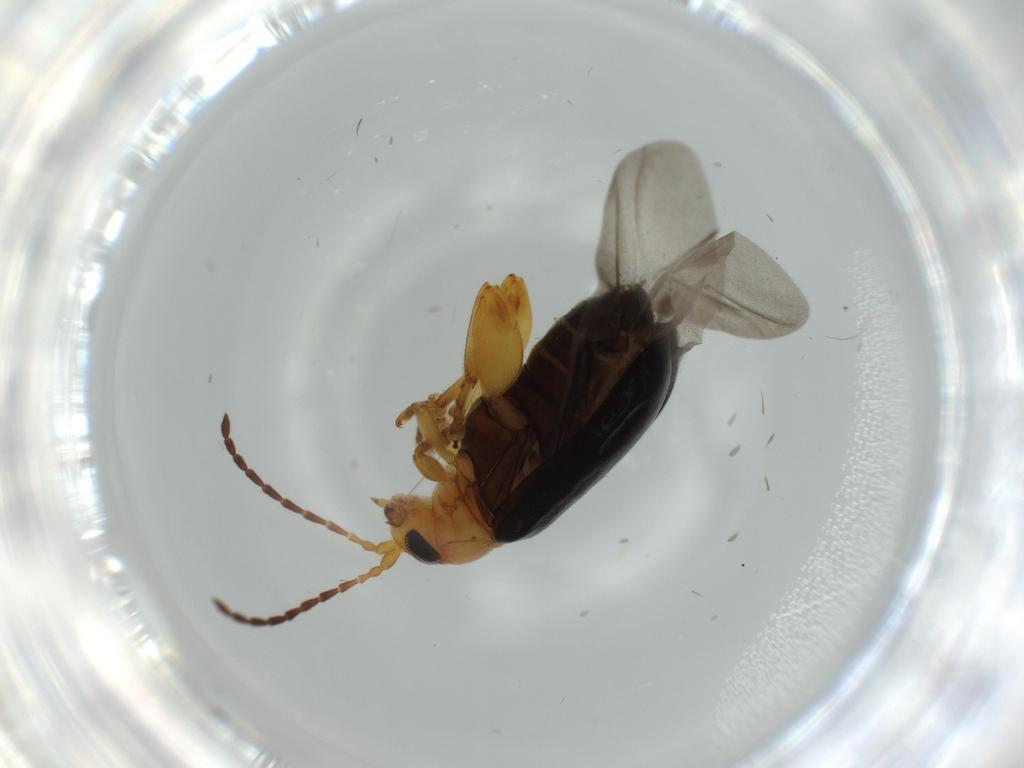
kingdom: Animalia
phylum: Arthropoda
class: Insecta
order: Coleoptera
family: Chrysomelidae
